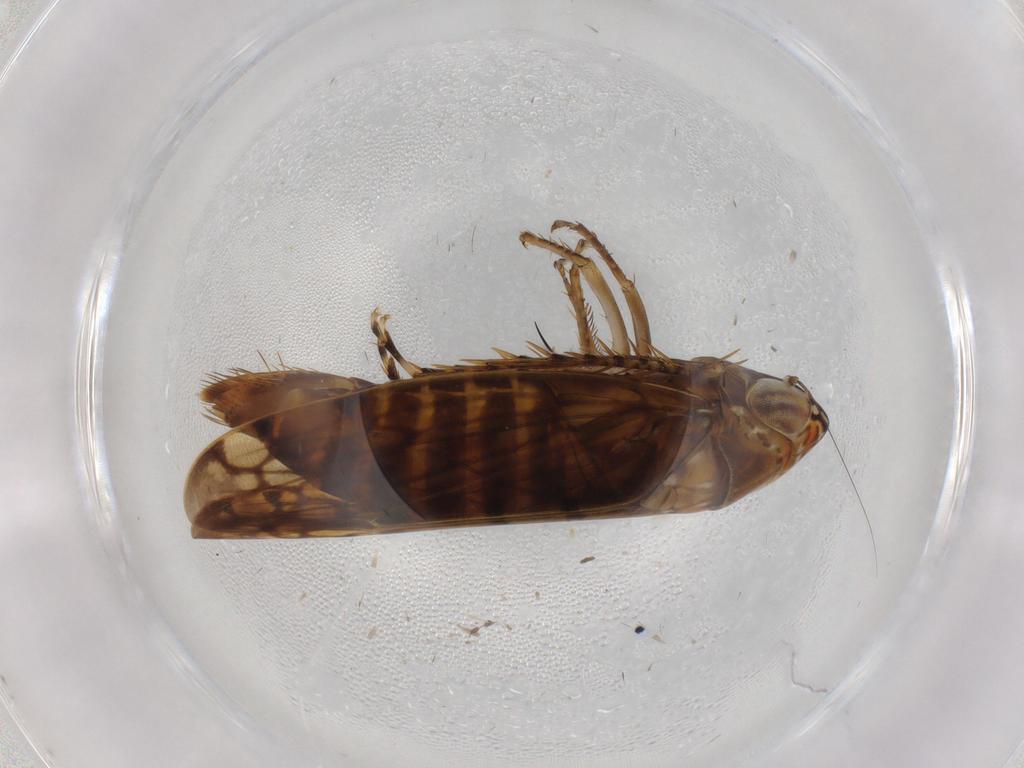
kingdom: Animalia
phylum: Arthropoda
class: Insecta
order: Hemiptera
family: Cicadellidae
